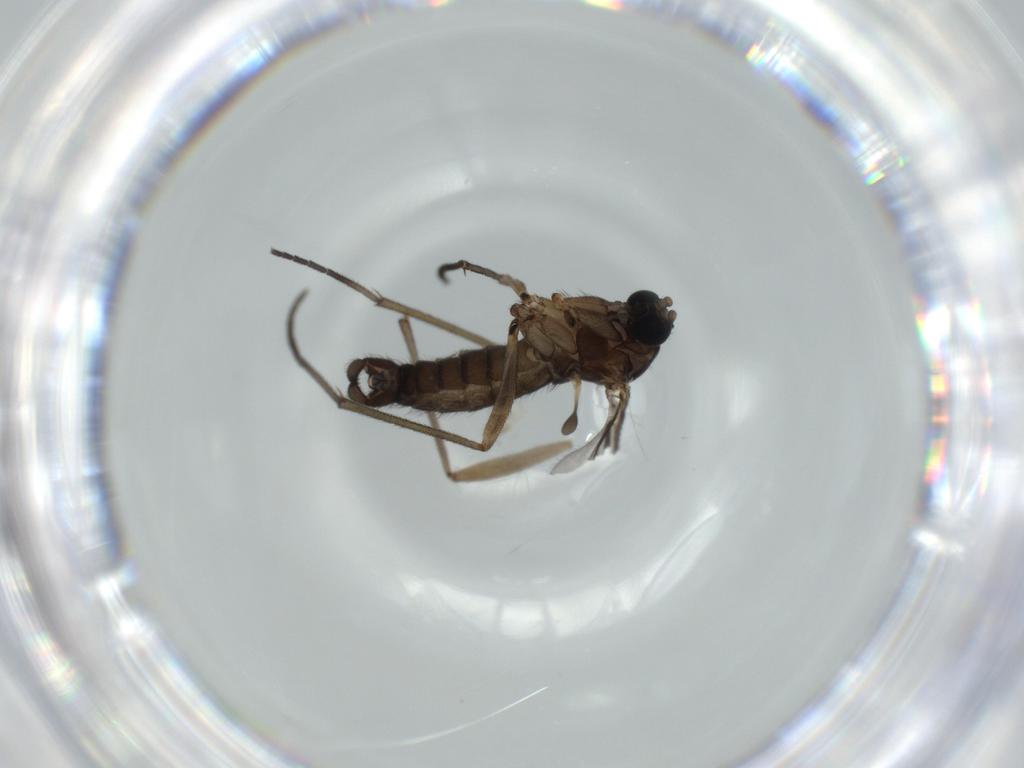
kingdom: Animalia
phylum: Arthropoda
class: Insecta
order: Diptera
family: Sciaridae
